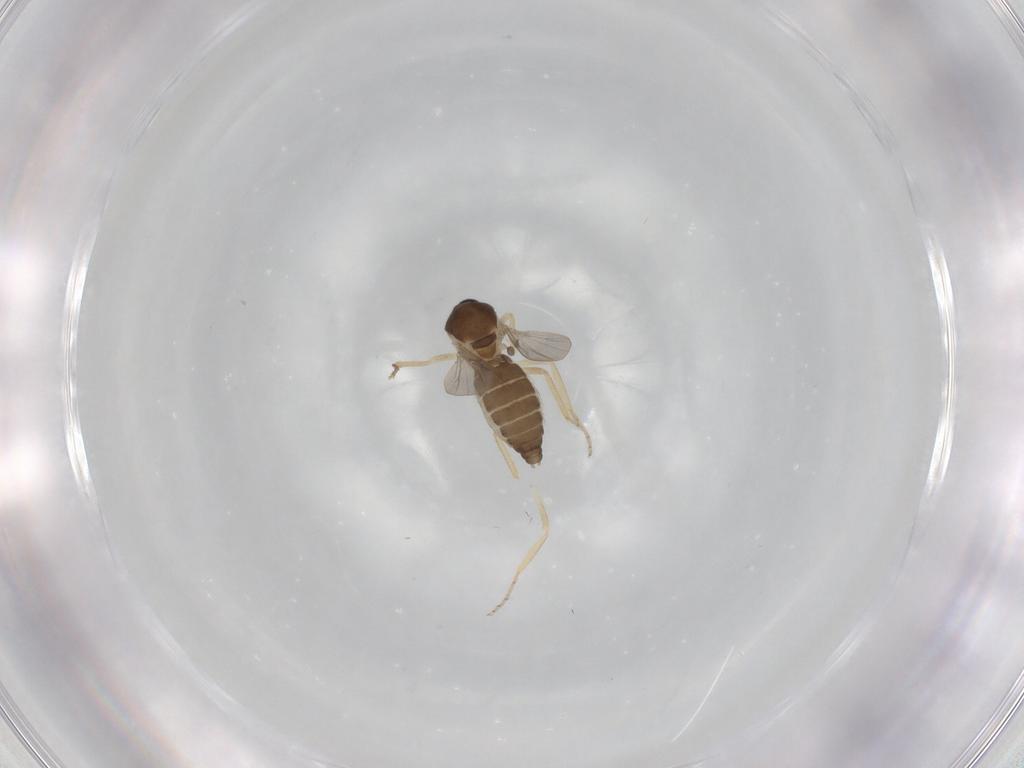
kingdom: Animalia
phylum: Arthropoda
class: Insecta
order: Diptera
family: Ceratopogonidae
